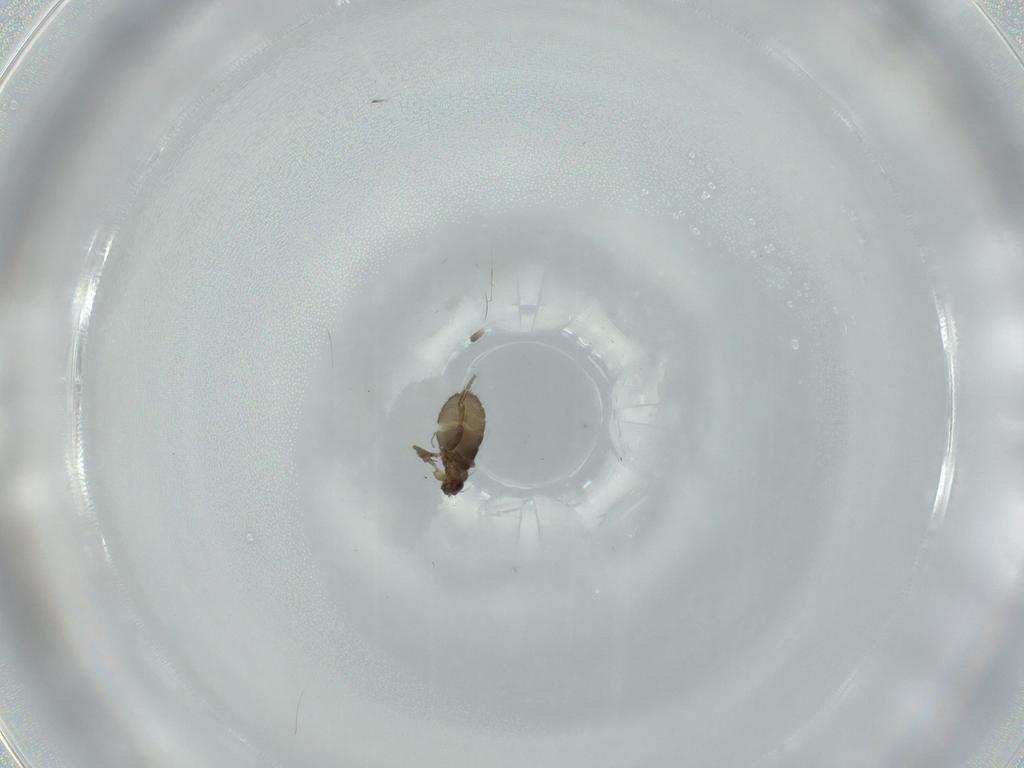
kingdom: Animalia
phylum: Arthropoda
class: Insecta
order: Diptera
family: Phoridae
